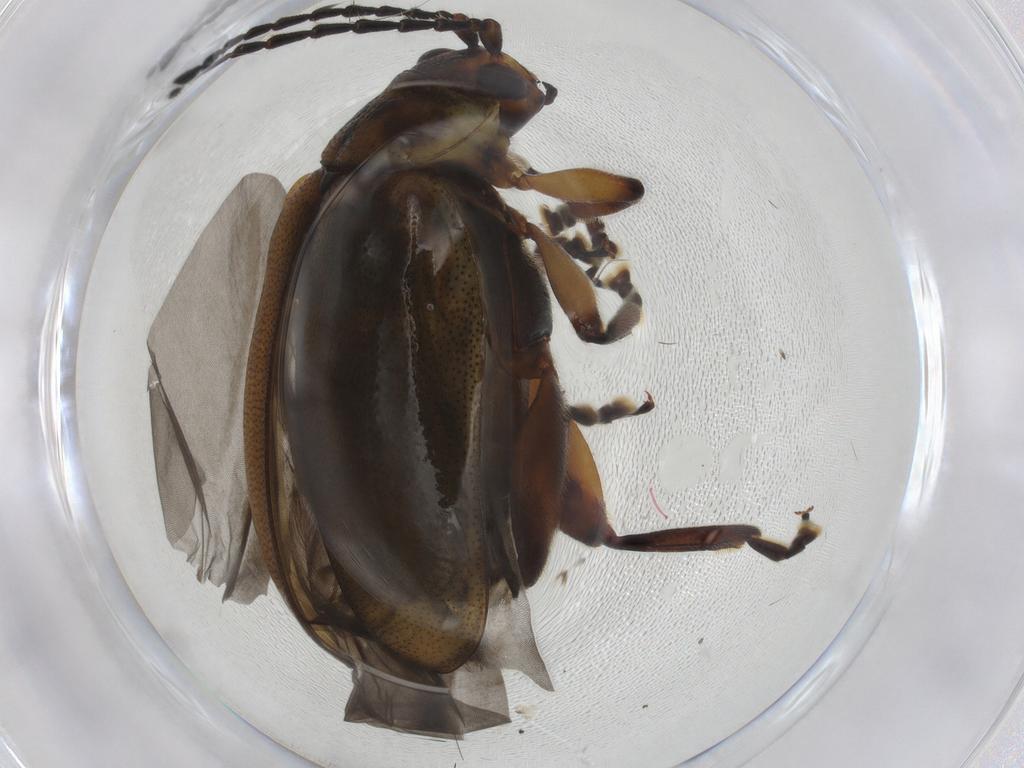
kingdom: Animalia
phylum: Arthropoda
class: Insecta
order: Coleoptera
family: Chrysomelidae
